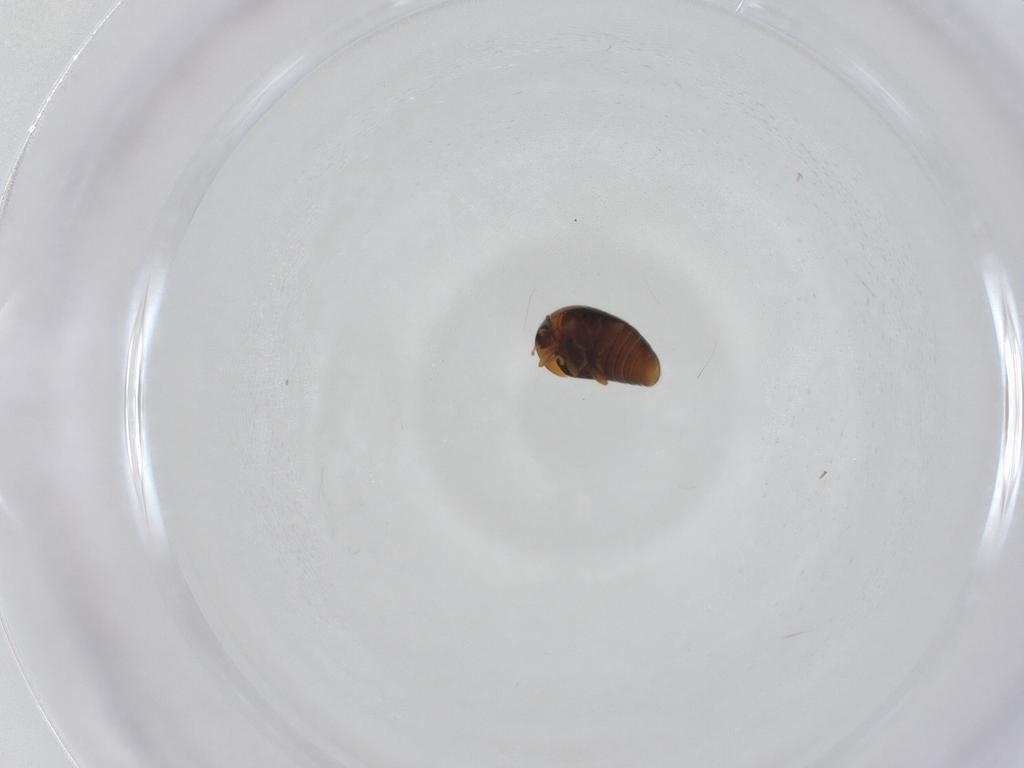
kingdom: Animalia
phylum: Arthropoda
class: Insecta
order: Coleoptera
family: Corylophidae
